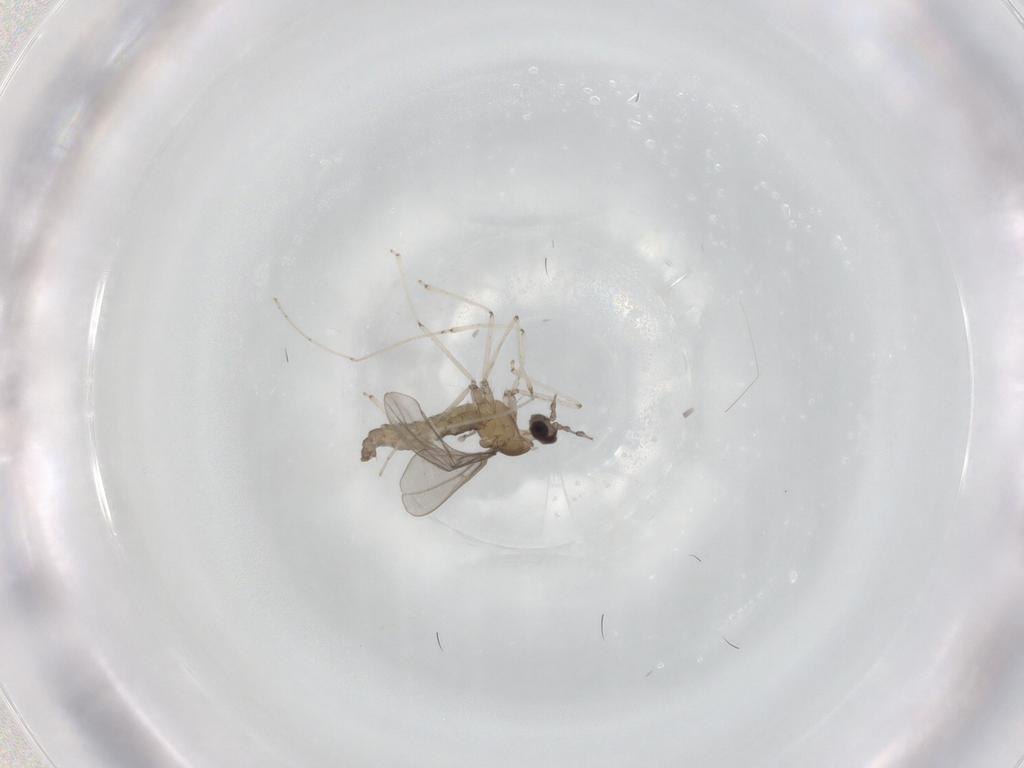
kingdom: Animalia
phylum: Arthropoda
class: Insecta
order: Diptera
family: Cecidomyiidae
